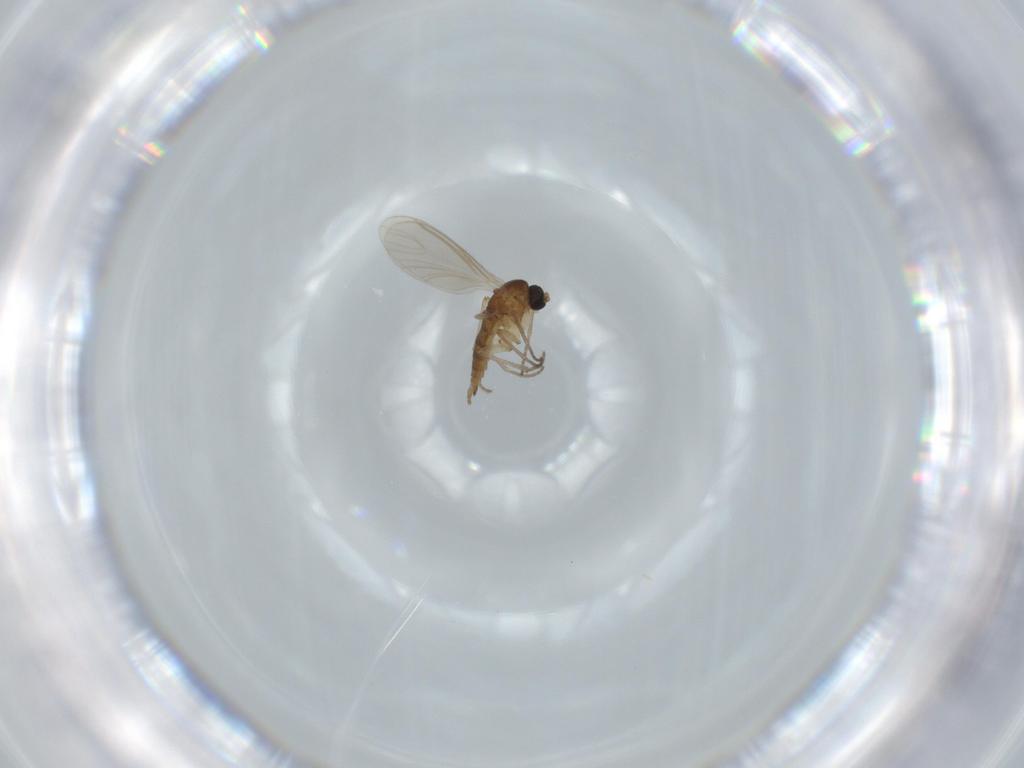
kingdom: Animalia
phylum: Arthropoda
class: Insecta
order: Diptera
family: Sciaridae
